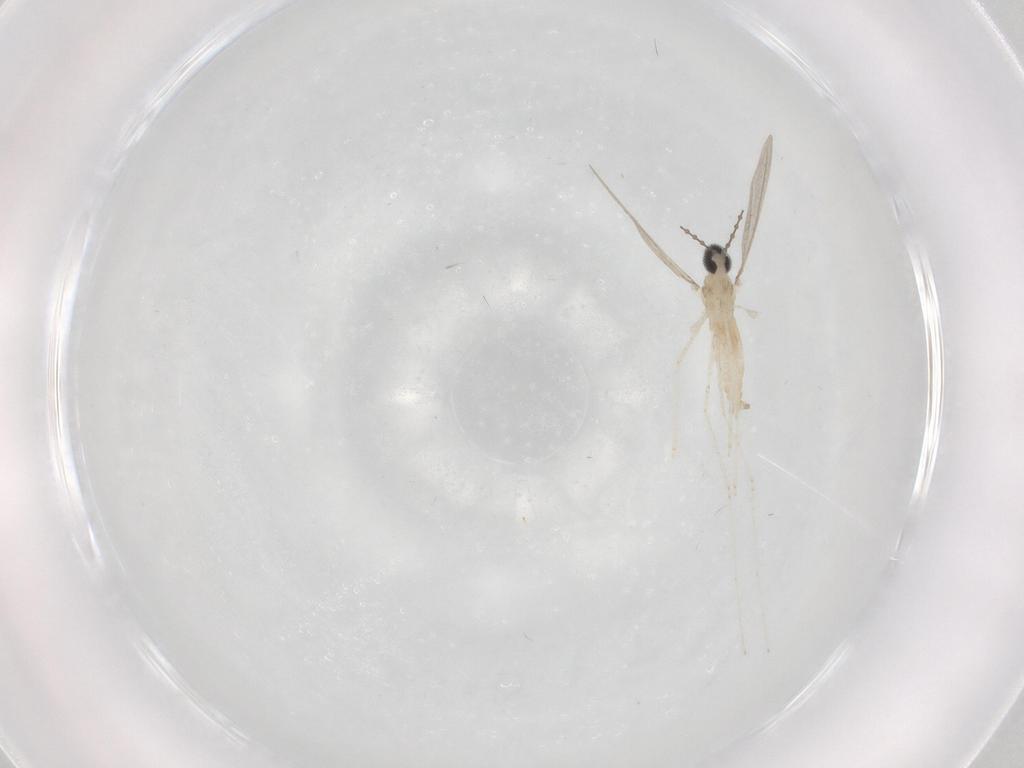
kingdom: Animalia
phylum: Arthropoda
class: Insecta
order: Diptera
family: Cecidomyiidae
